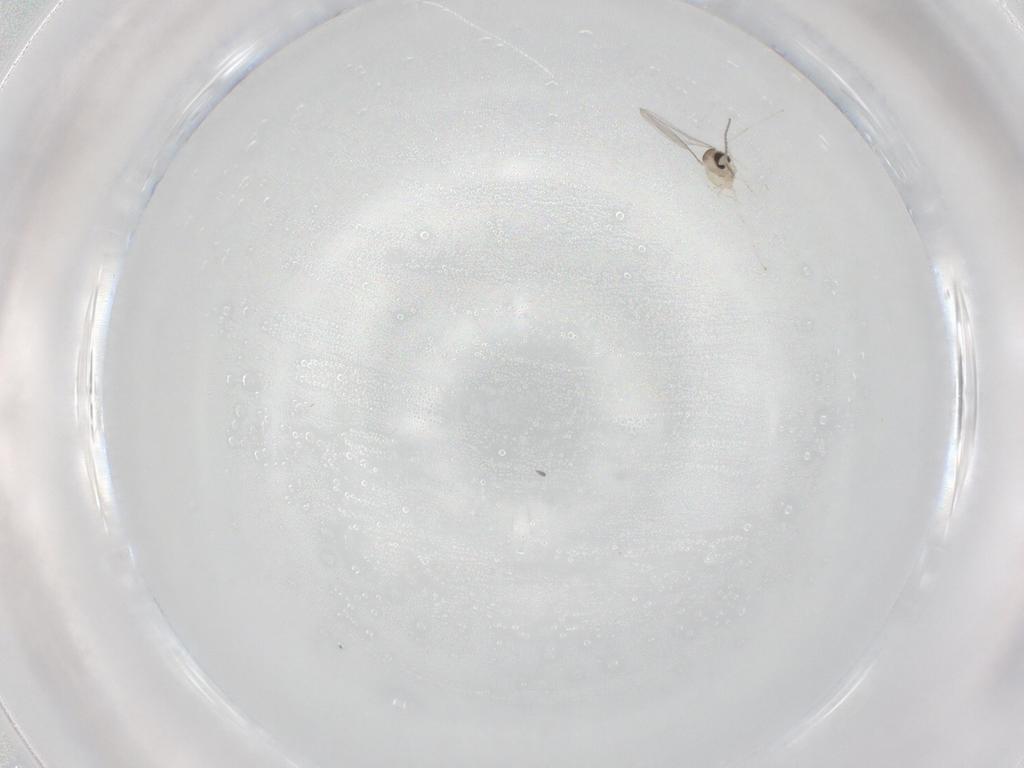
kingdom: Animalia
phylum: Arthropoda
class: Insecta
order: Diptera
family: Cecidomyiidae
